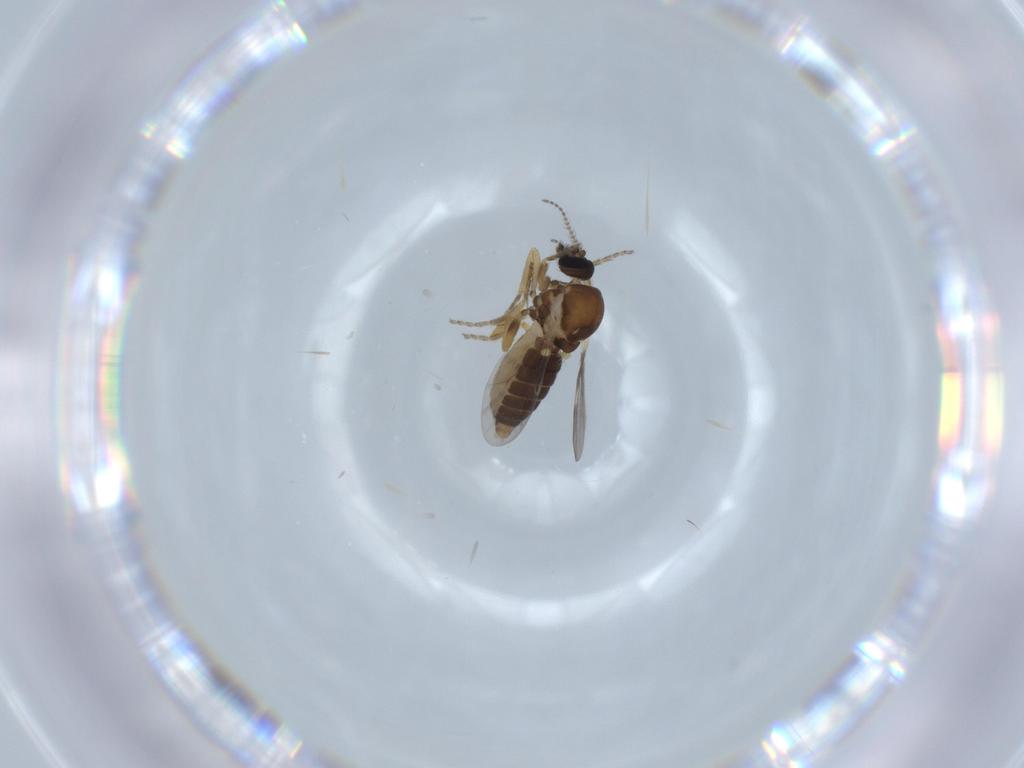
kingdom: Animalia
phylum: Arthropoda
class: Insecta
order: Diptera
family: Ceratopogonidae
